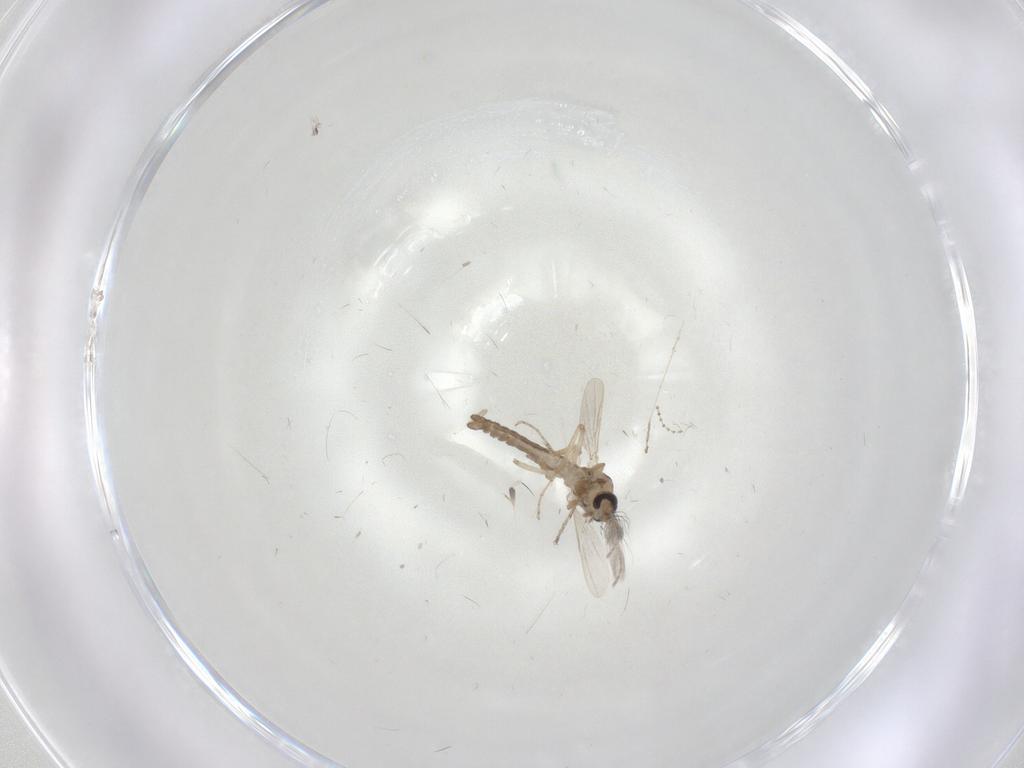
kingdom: Animalia
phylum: Arthropoda
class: Insecta
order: Diptera
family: Ceratopogonidae
